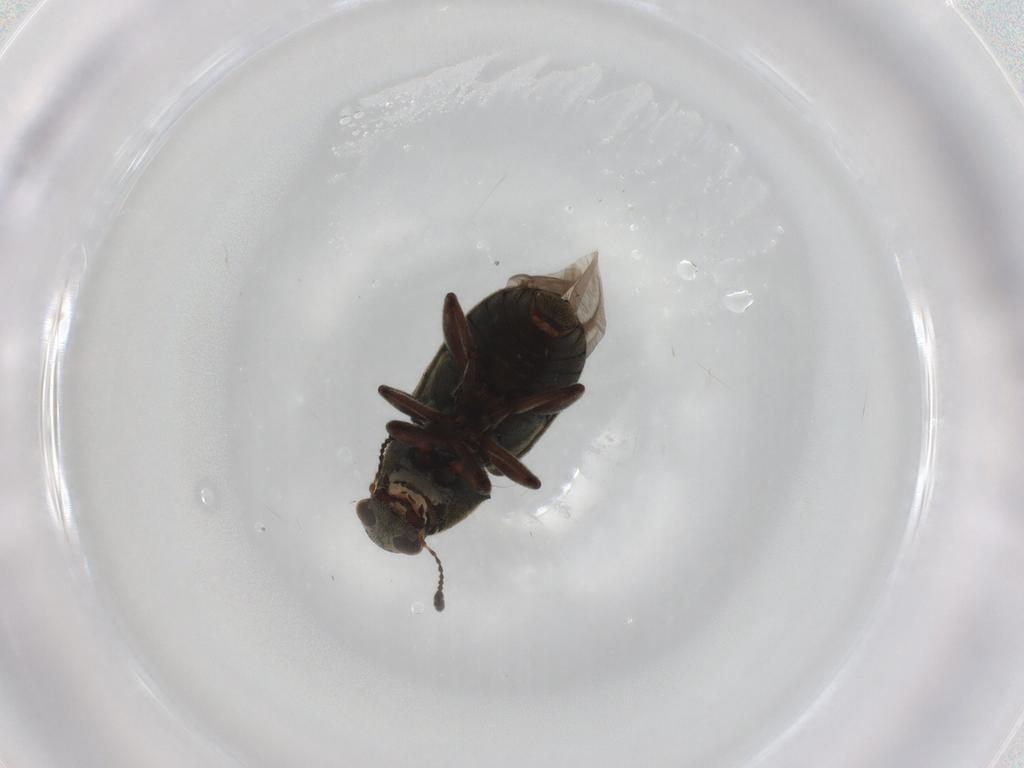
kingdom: Animalia
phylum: Arthropoda
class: Insecta
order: Coleoptera
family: Anthribidae
